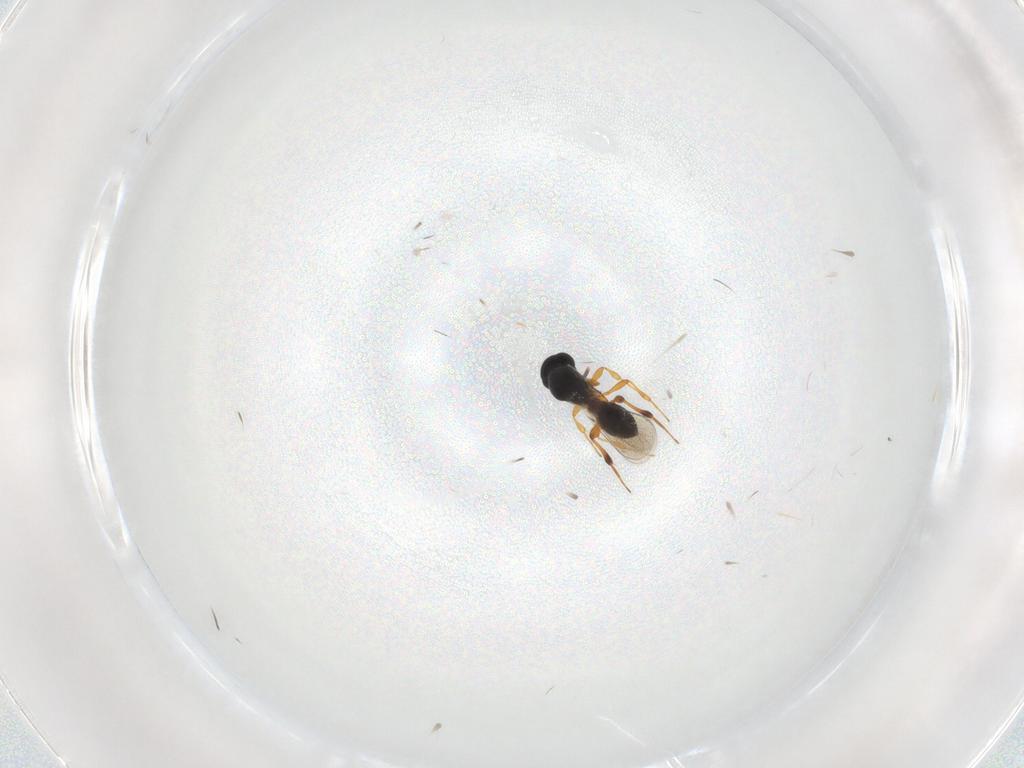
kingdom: Animalia
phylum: Arthropoda
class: Insecta
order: Hymenoptera
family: Platygastridae
